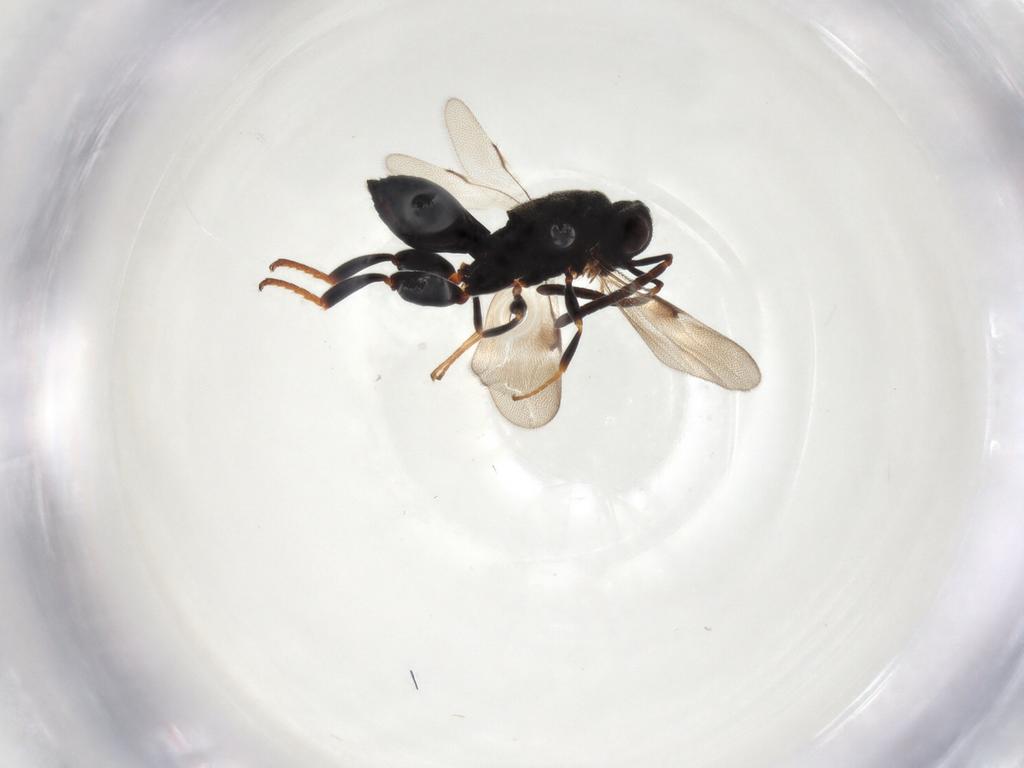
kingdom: Animalia
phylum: Arthropoda
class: Insecta
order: Hymenoptera
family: Chalcididae
